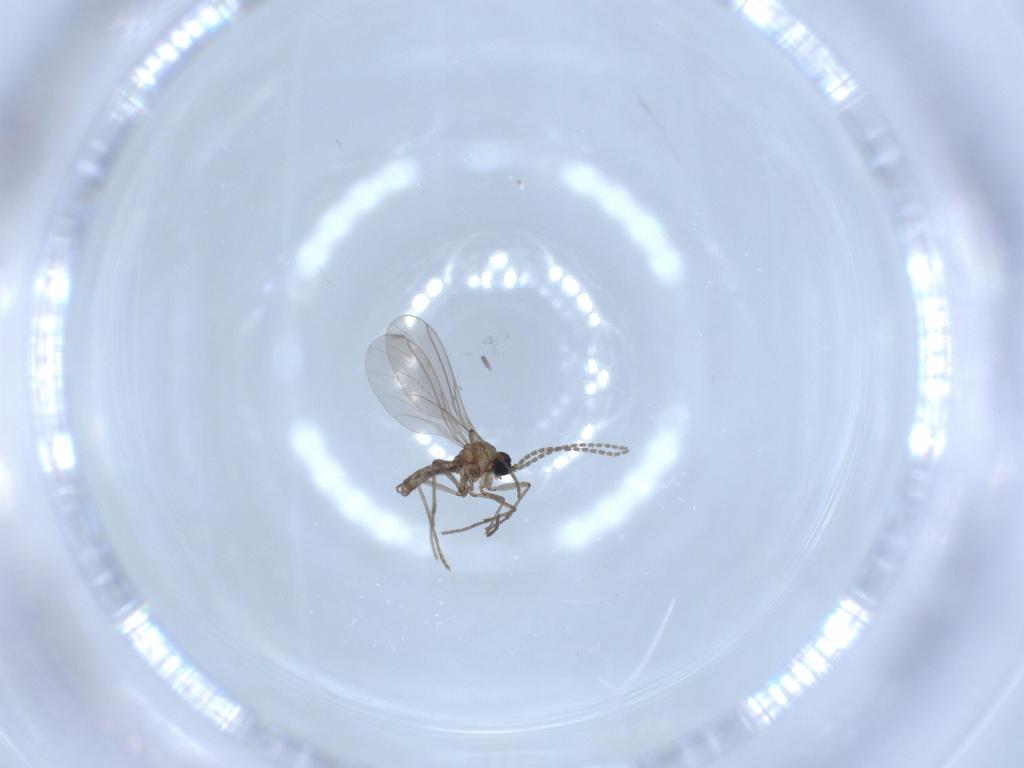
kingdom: Animalia
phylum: Arthropoda
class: Insecta
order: Diptera
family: Sciaridae
